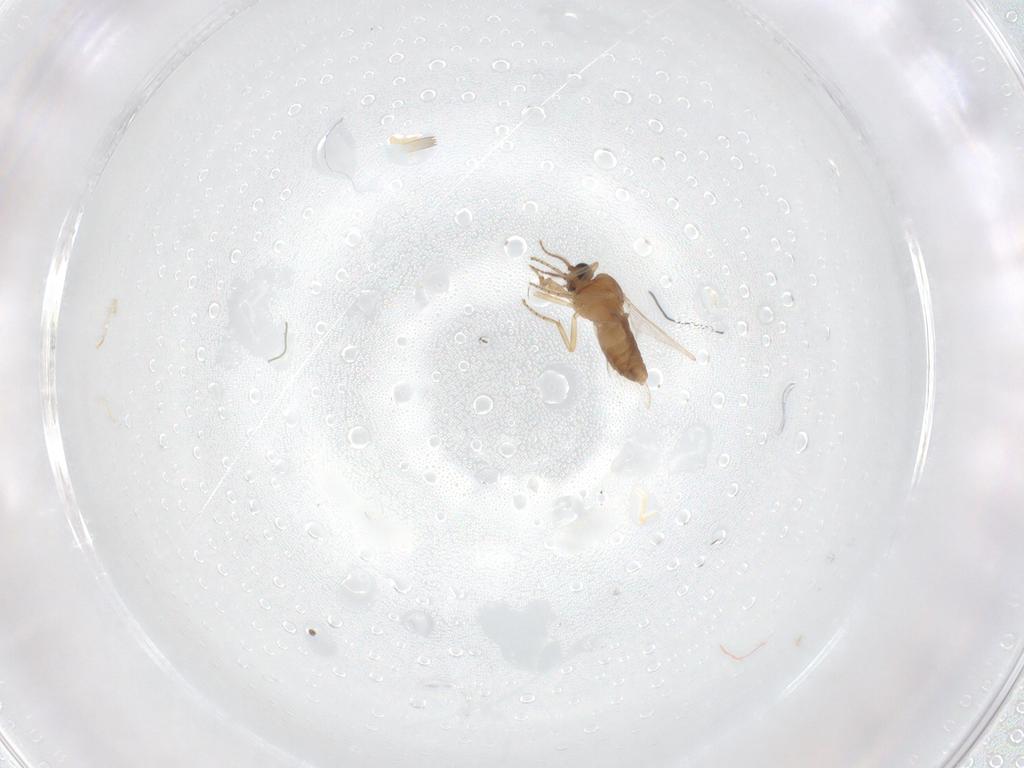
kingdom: Animalia
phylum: Arthropoda
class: Insecta
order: Diptera
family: Ceratopogonidae
